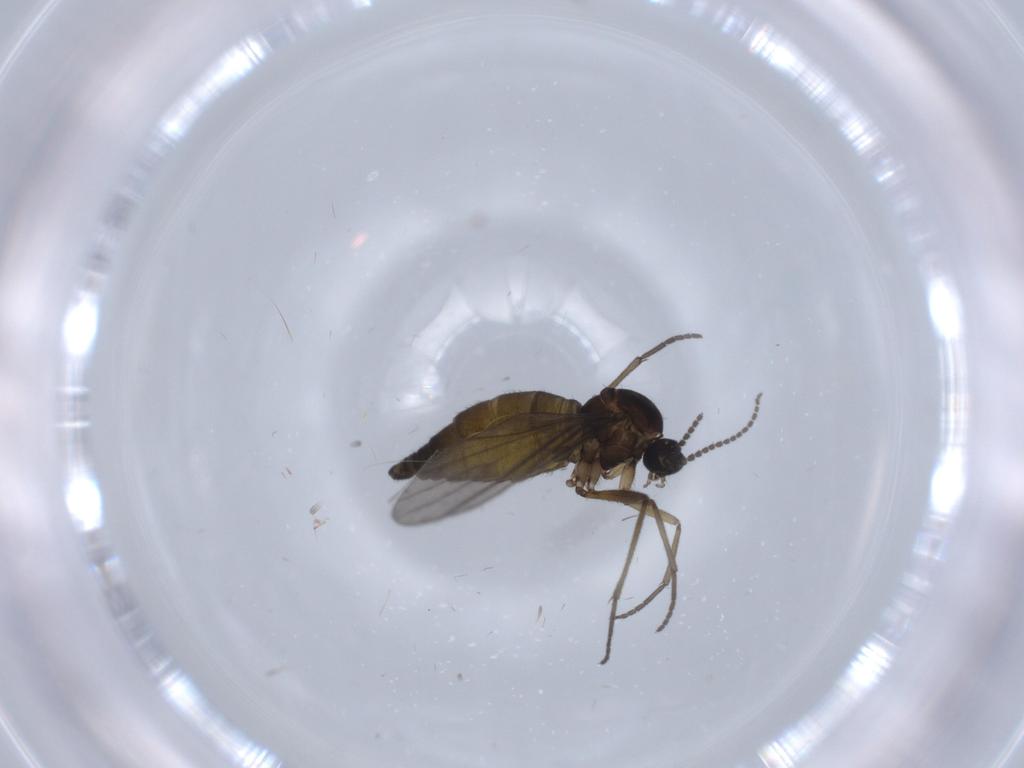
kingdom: Animalia
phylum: Arthropoda
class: Insecta
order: Diptera
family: Sciaridae
